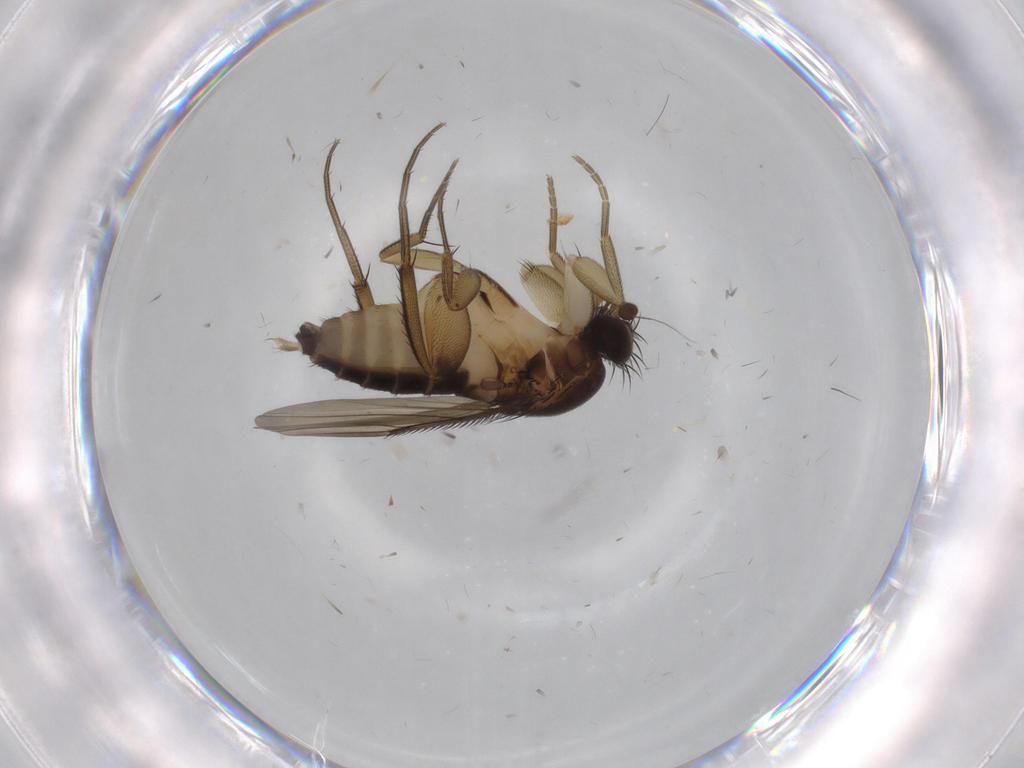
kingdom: Animalia
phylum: Arthropoda
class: Insecta
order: Diptera
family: Phoridae
